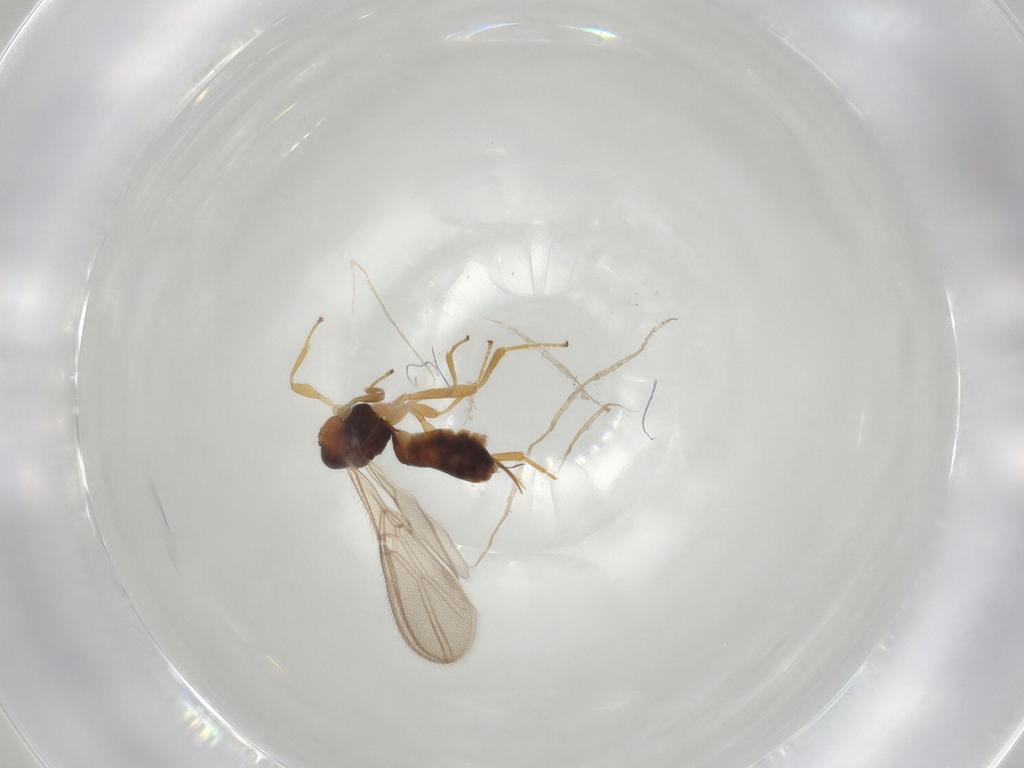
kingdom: Animalia
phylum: Arthropoda
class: Insecta
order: Hymenoptera
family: Braconidae
